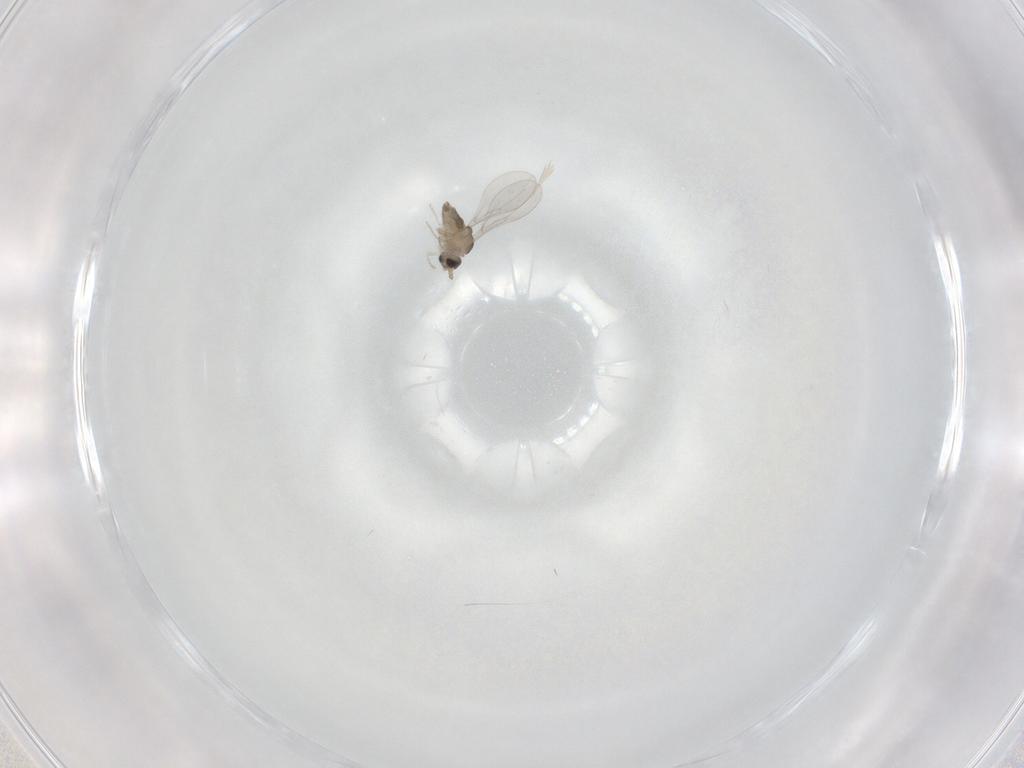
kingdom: Animalia
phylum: Arthropoda
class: Insecta
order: Diptera
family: Cecidomyiidae
